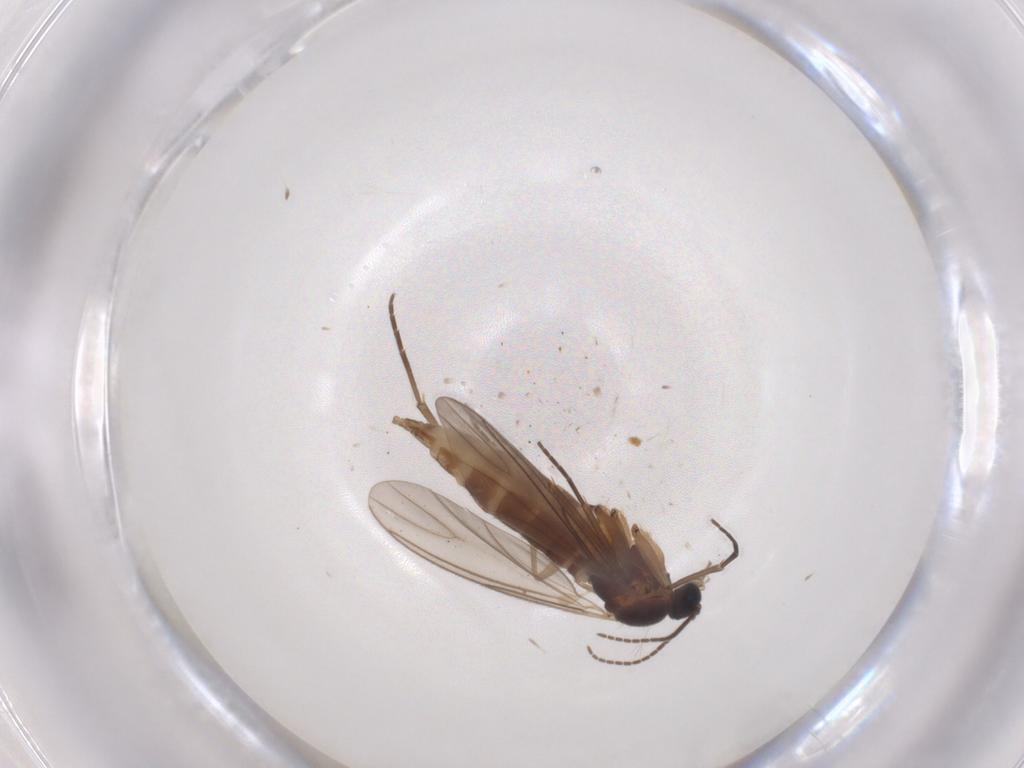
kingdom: Animalia
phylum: Arthropoda
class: Insecta
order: Diptera
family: Sciaridae
